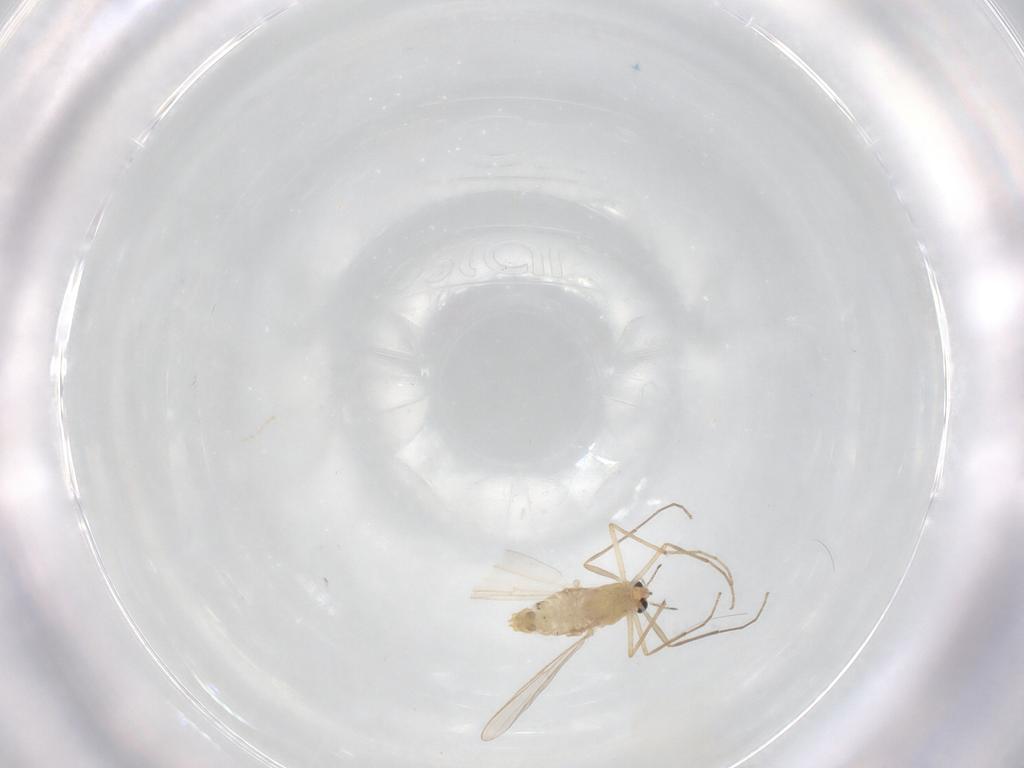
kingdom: Animalia
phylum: Arthropoda
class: Insecta
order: Diptera
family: Chironomidae
